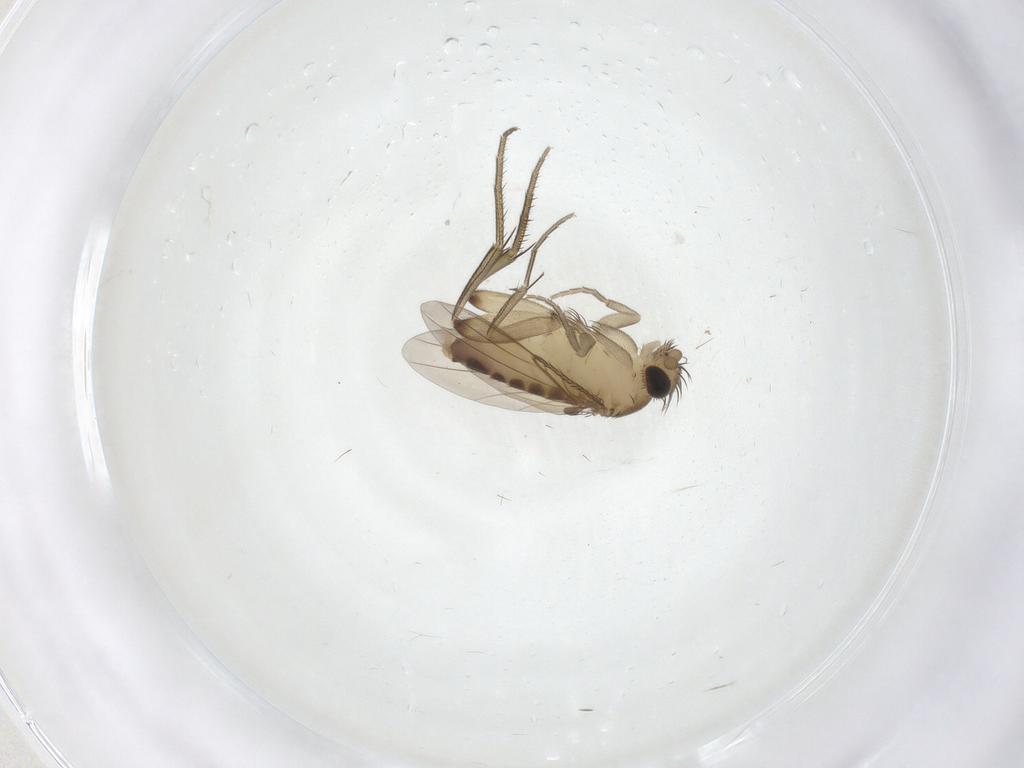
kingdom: Animalia
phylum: Arthropoda
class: Insecta
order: Diptera
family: Phoridae
